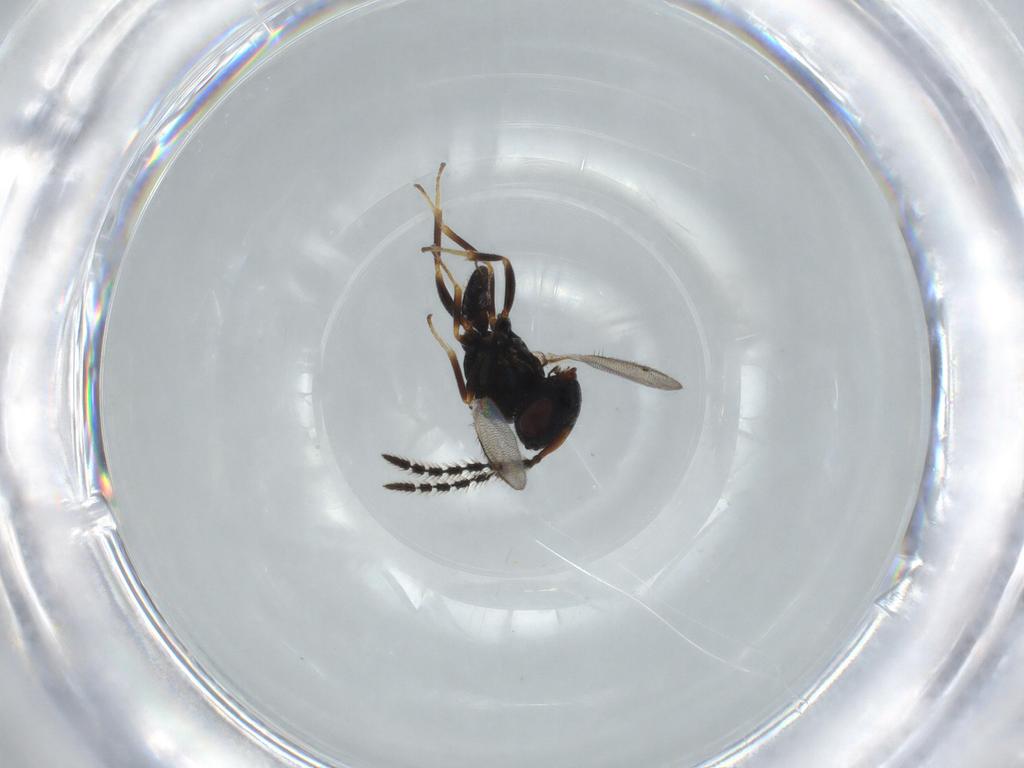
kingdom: Animalia
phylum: Arthropoda
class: Insecta
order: Hymenoptera
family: Pteromalidae
